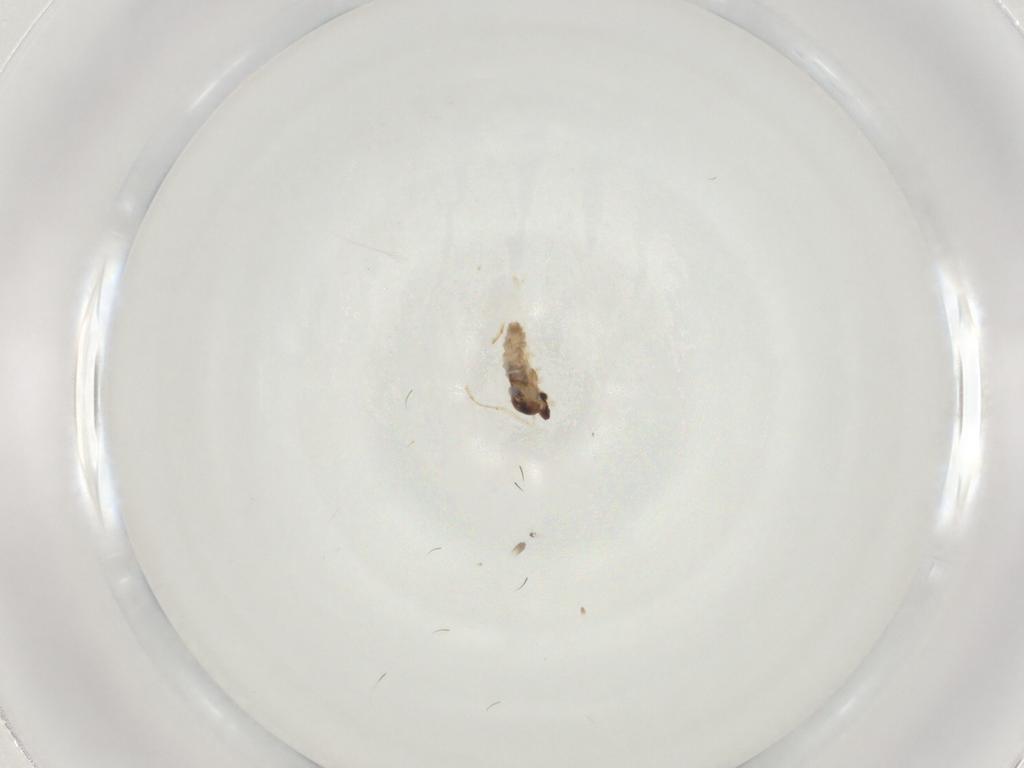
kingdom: Animalia
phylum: Arthropoda
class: Insecta
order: Diptera
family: Cecidomyiidae
